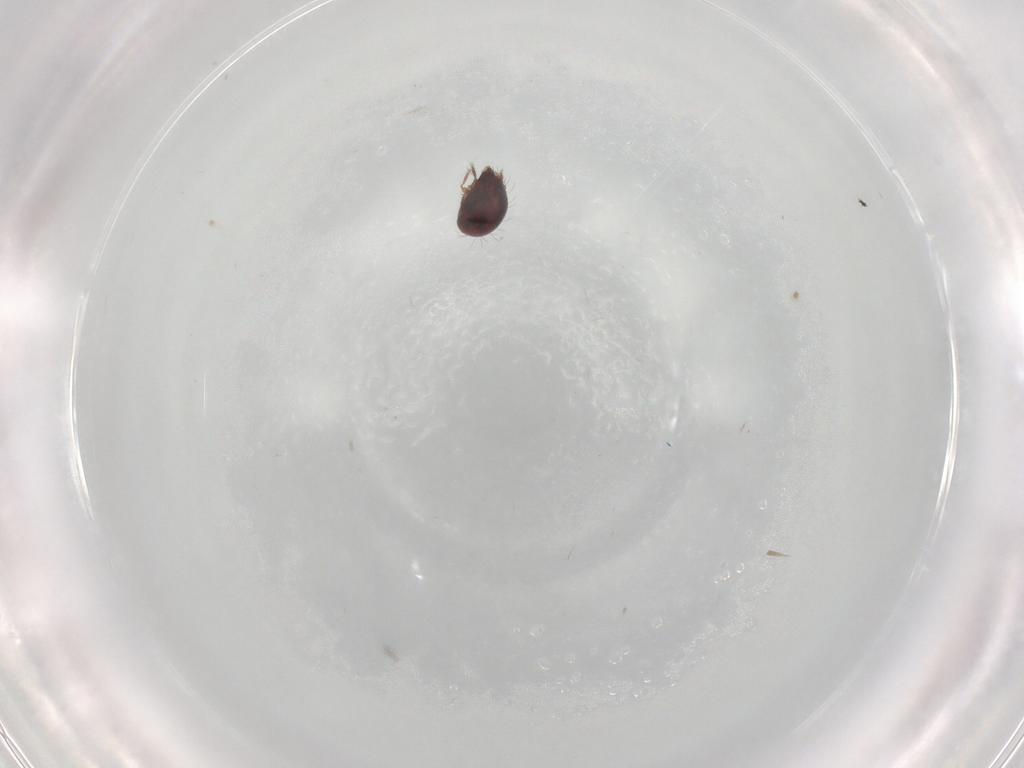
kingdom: Animalia
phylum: Arthropoda
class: Arachnida
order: Sarcoptiformes
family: Humerobatidae
